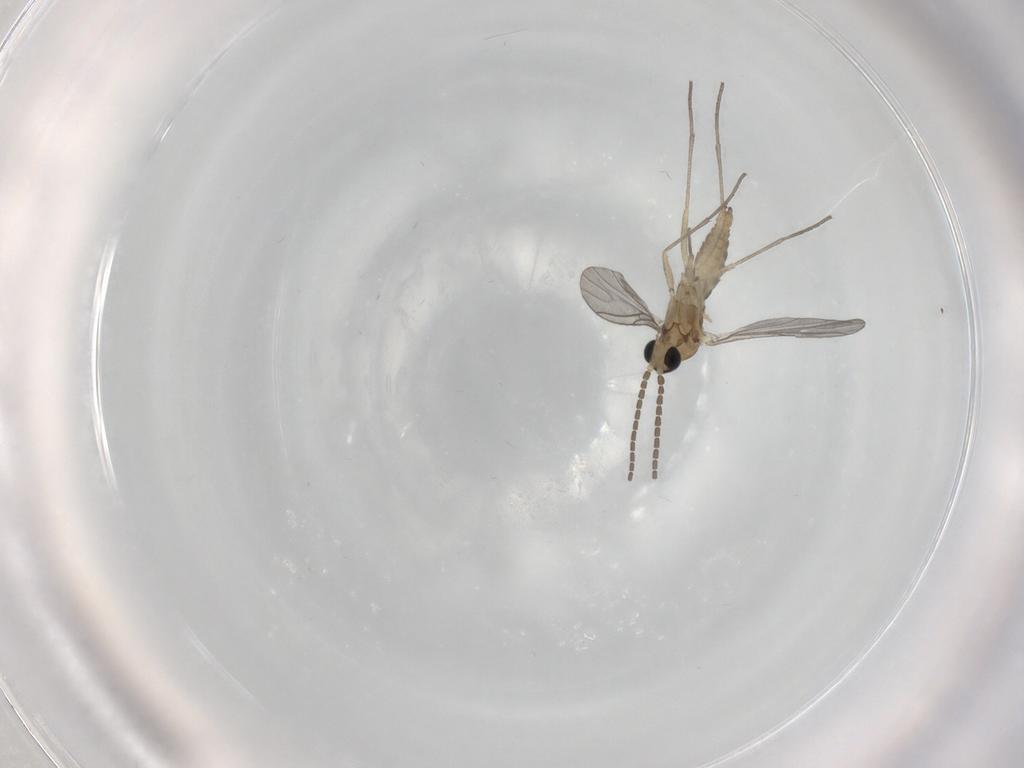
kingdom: Animalia
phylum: Arthropoda
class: Insecta
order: Diptera
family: Sciaridae
